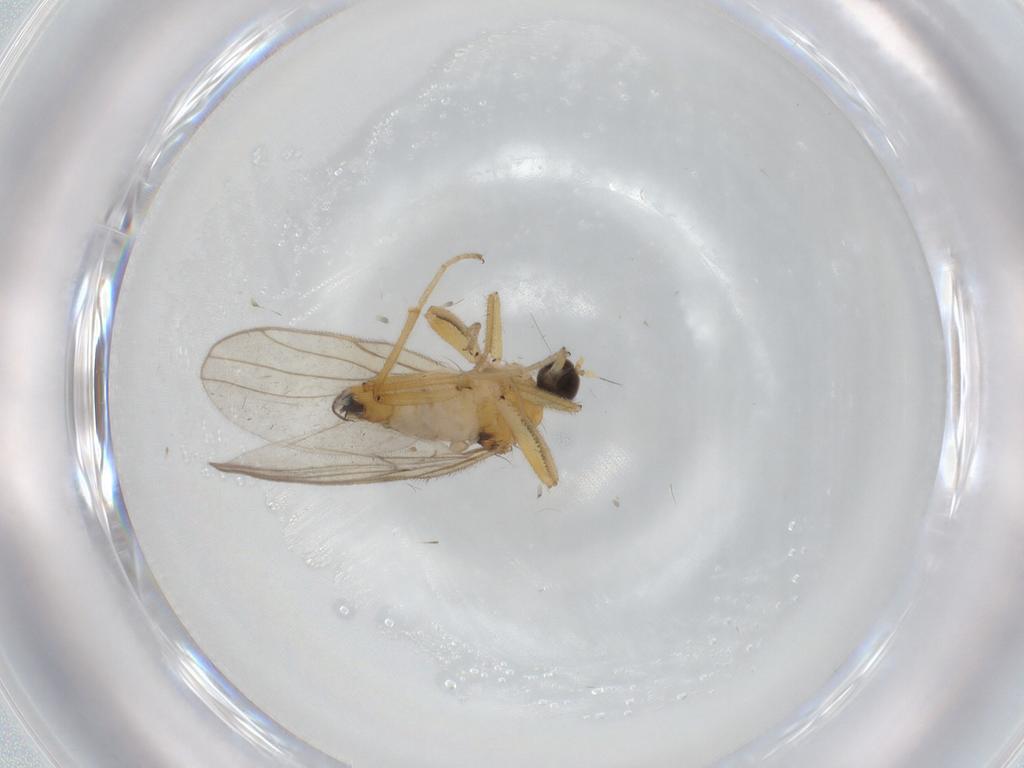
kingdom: Animalia
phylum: Arthropoda
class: Insecta
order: Diptera
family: Hybotidae
